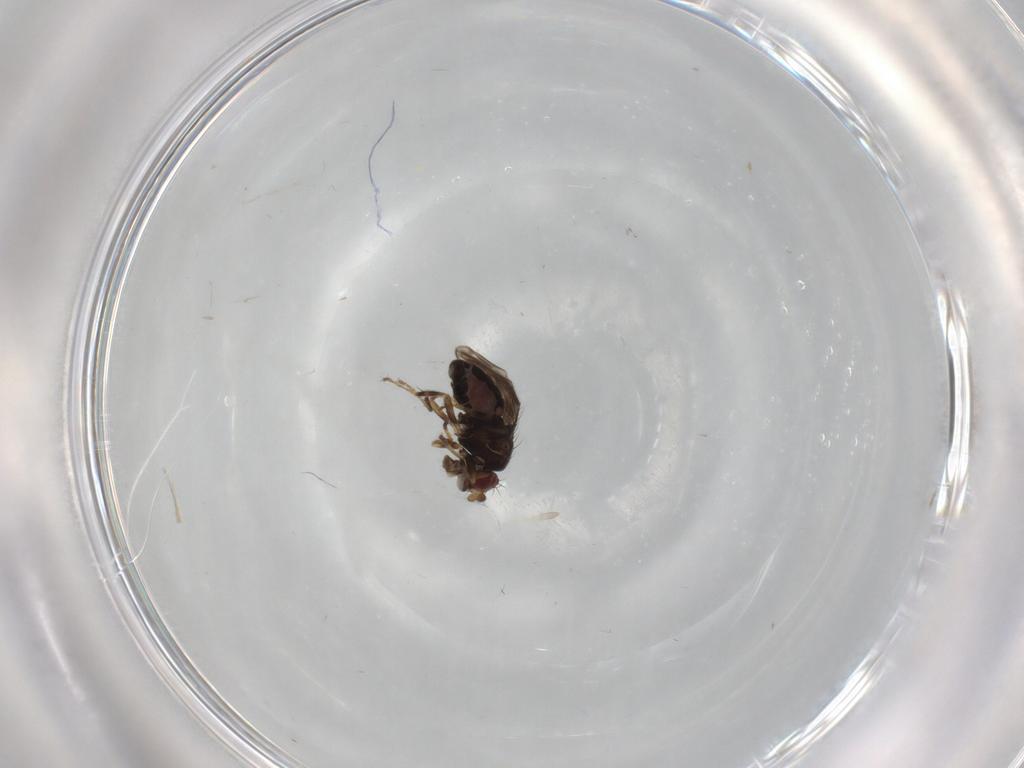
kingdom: Animalia
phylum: Arthropoda
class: Insecta
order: Diptera
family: Sphaeroceridae
